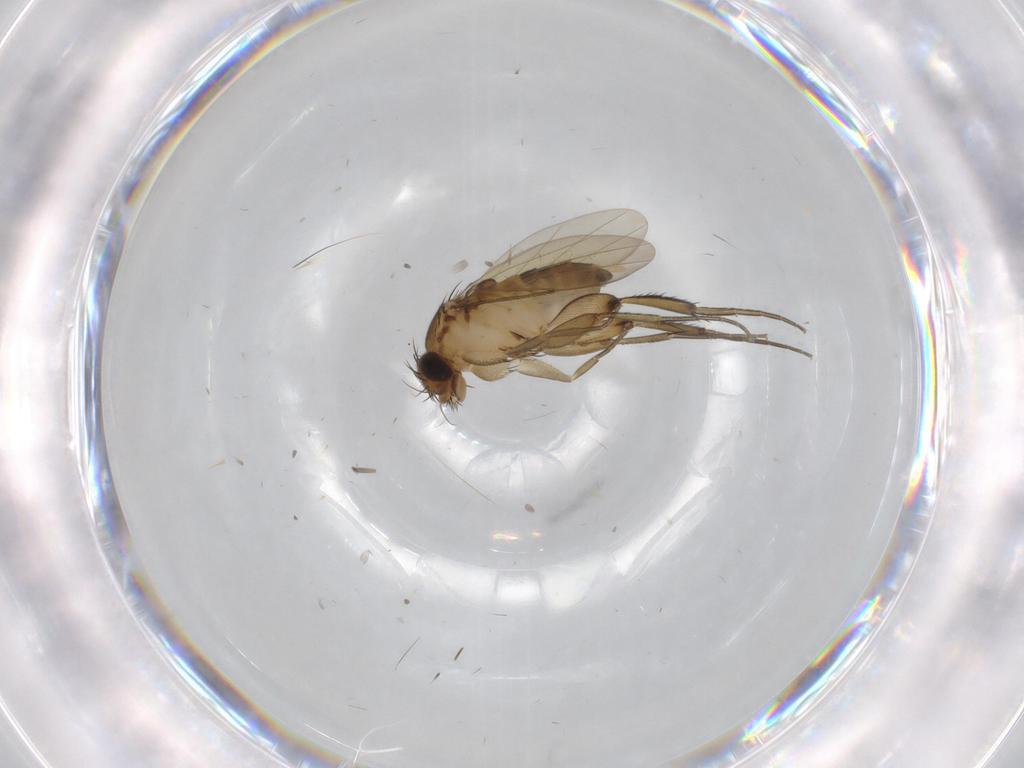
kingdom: Animalia
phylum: Arthropoda
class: Insecta
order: Diptera
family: Phoridae
